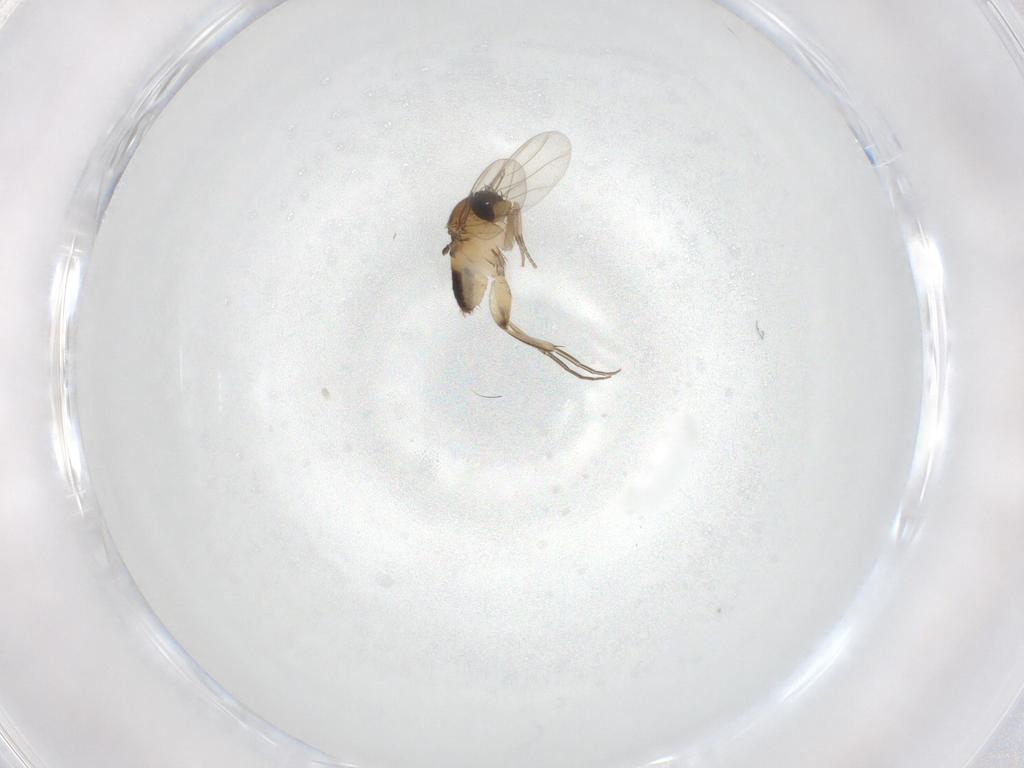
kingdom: Animalia
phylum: Arthropoda
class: Insecta
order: Diptera
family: Phoridae
